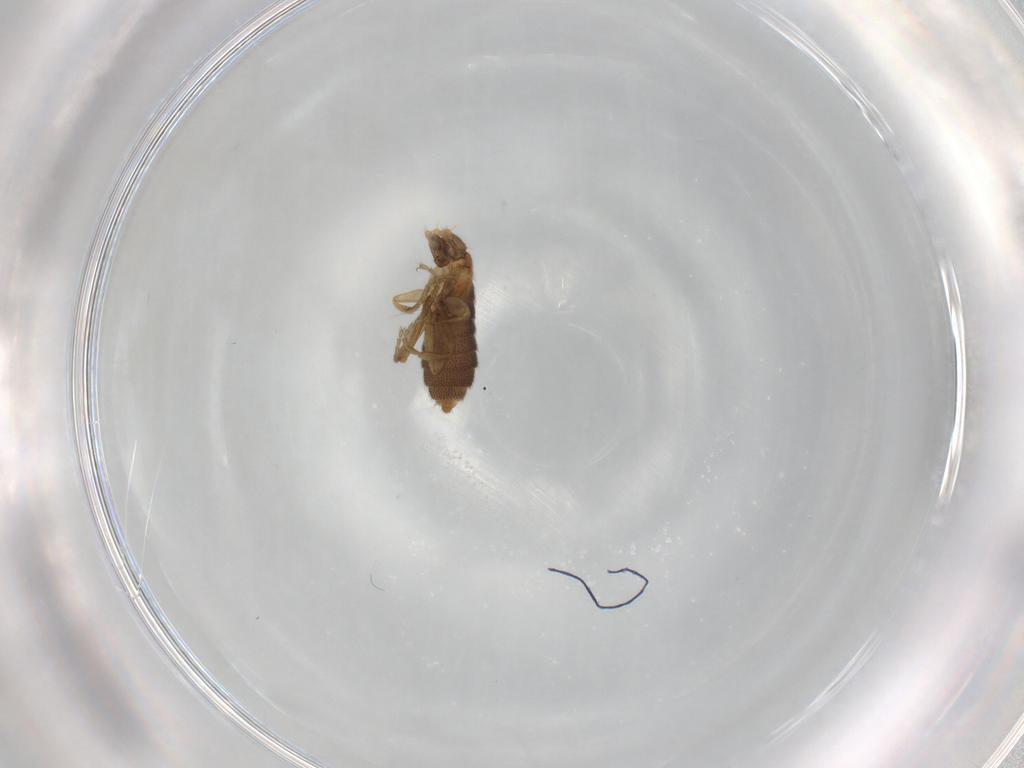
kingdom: Animalia
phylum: Arthropoda
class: Insecta
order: Diptera
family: Phoridae
